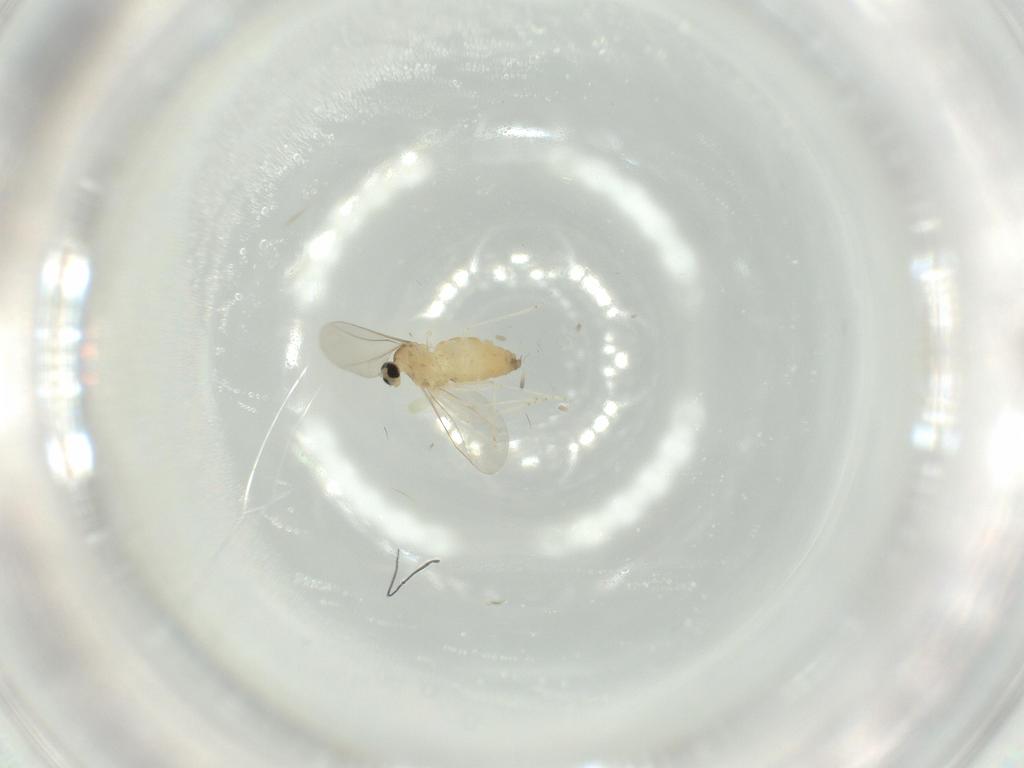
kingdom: Animalia
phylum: Arthropoda
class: Insecta
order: Diptera
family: Cecidomyiidae
